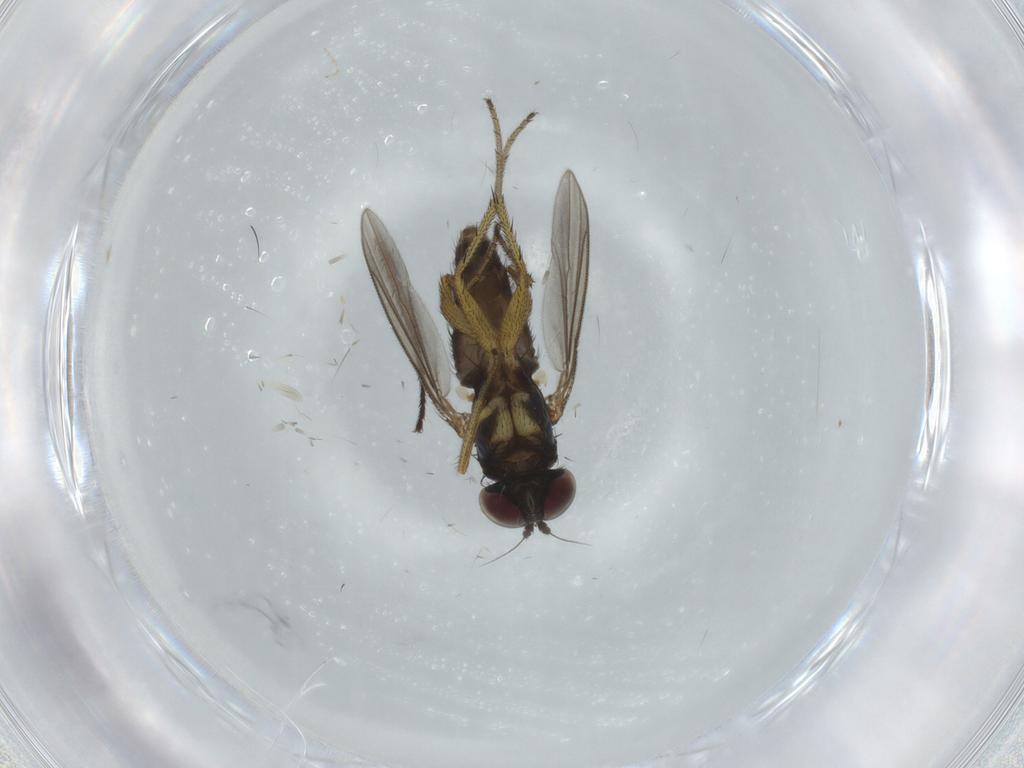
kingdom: Animalia
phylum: Arthropoda
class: Insecta
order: Diptera
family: Dolichopodidae
